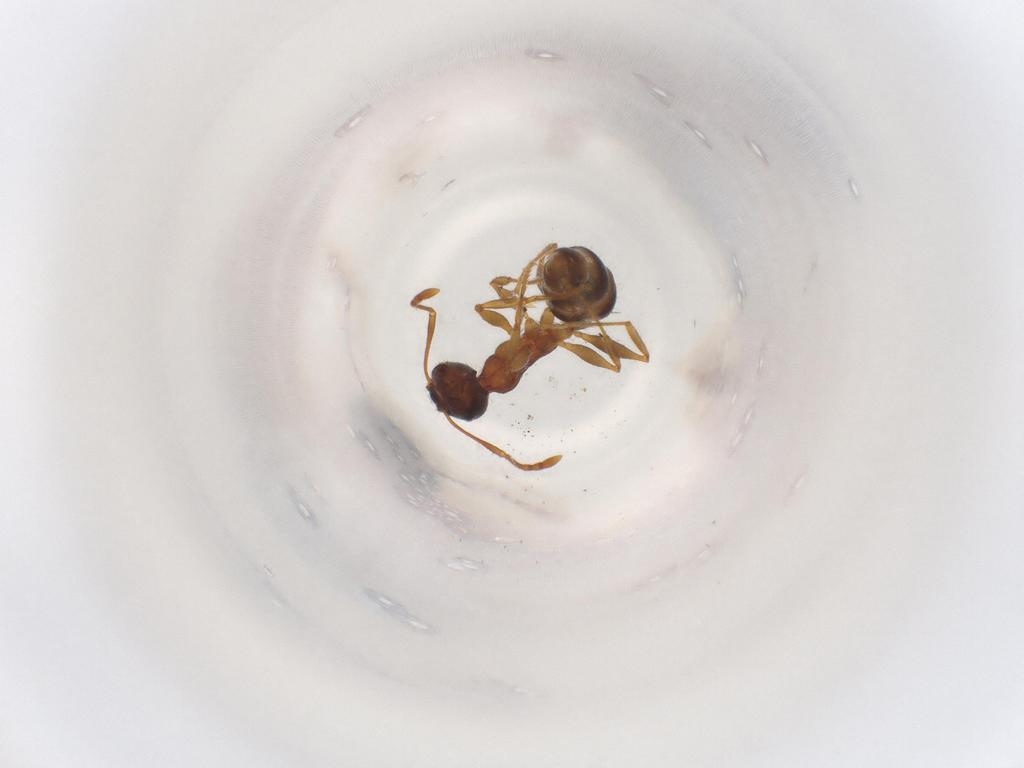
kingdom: Animalia
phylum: Arthropoda
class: Insecta
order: Hymenoptera
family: Formicidae
